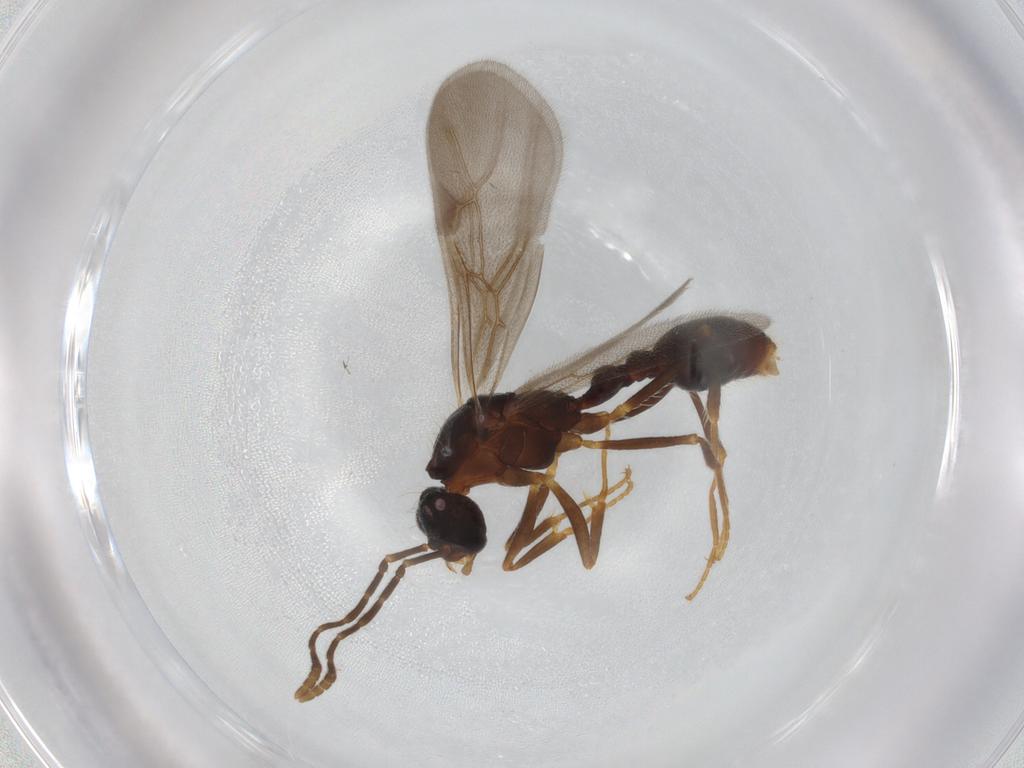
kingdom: Animalia
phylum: Arthropoda
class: Insecta
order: Hymenoptera
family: Formicidae
